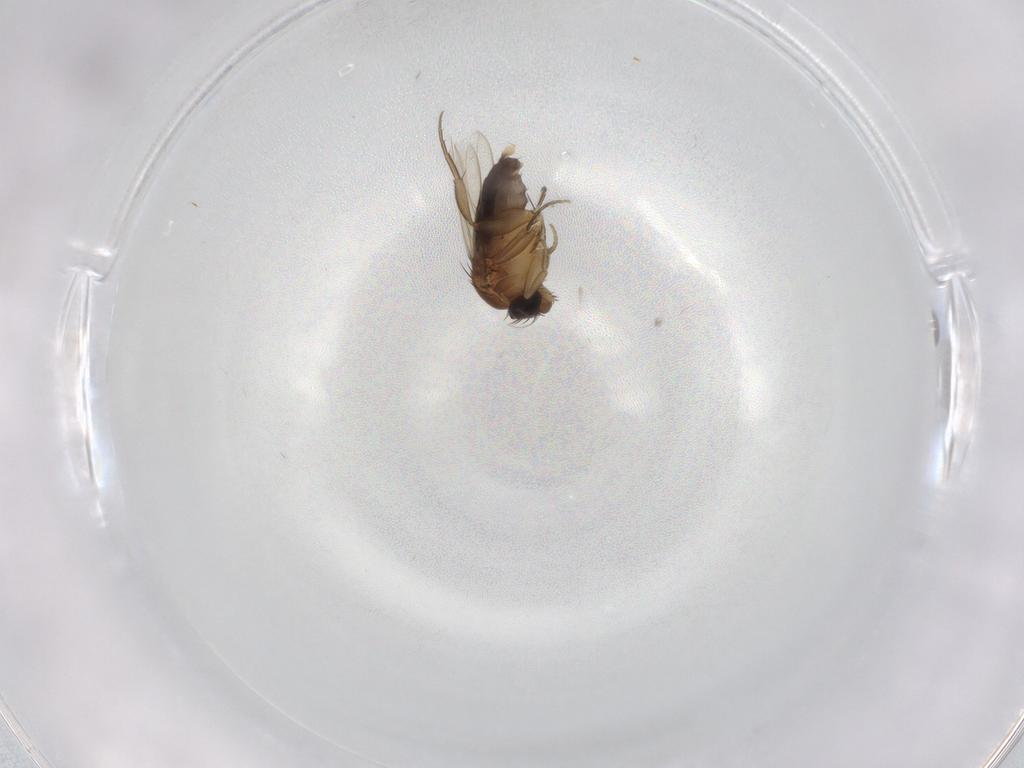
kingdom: Animalia
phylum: Arthropoda
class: Insecta
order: Diptera
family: Phoridae
